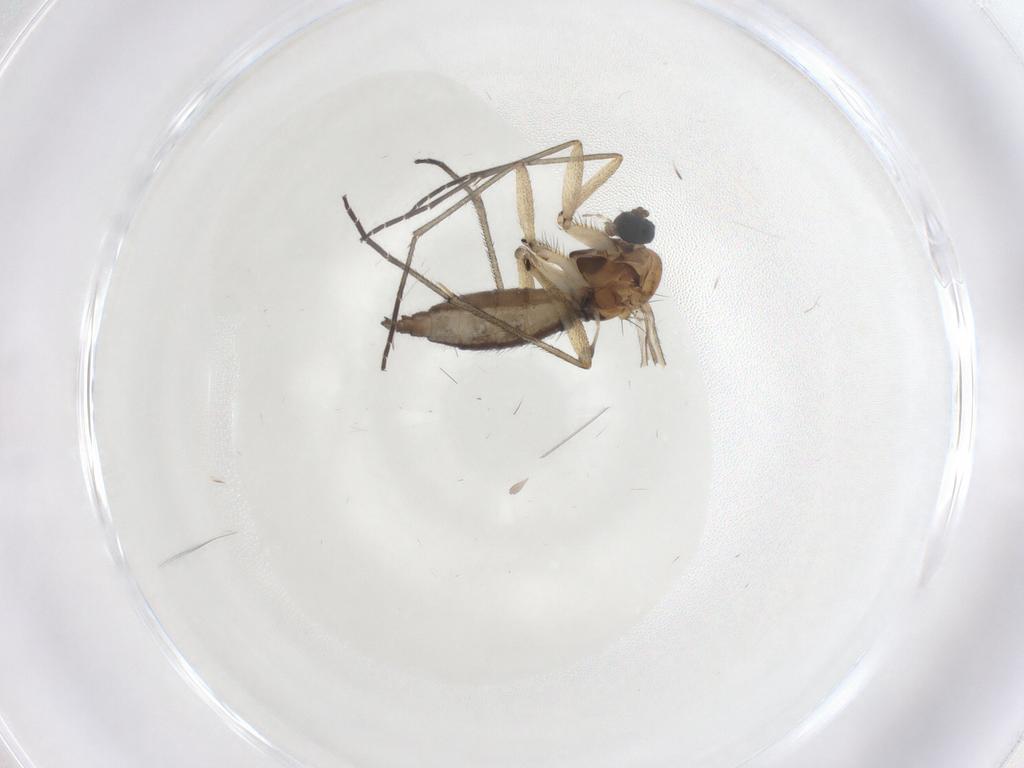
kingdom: Animalia
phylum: Arthropoda
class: Insecta
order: Diptera
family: Sciaridae
